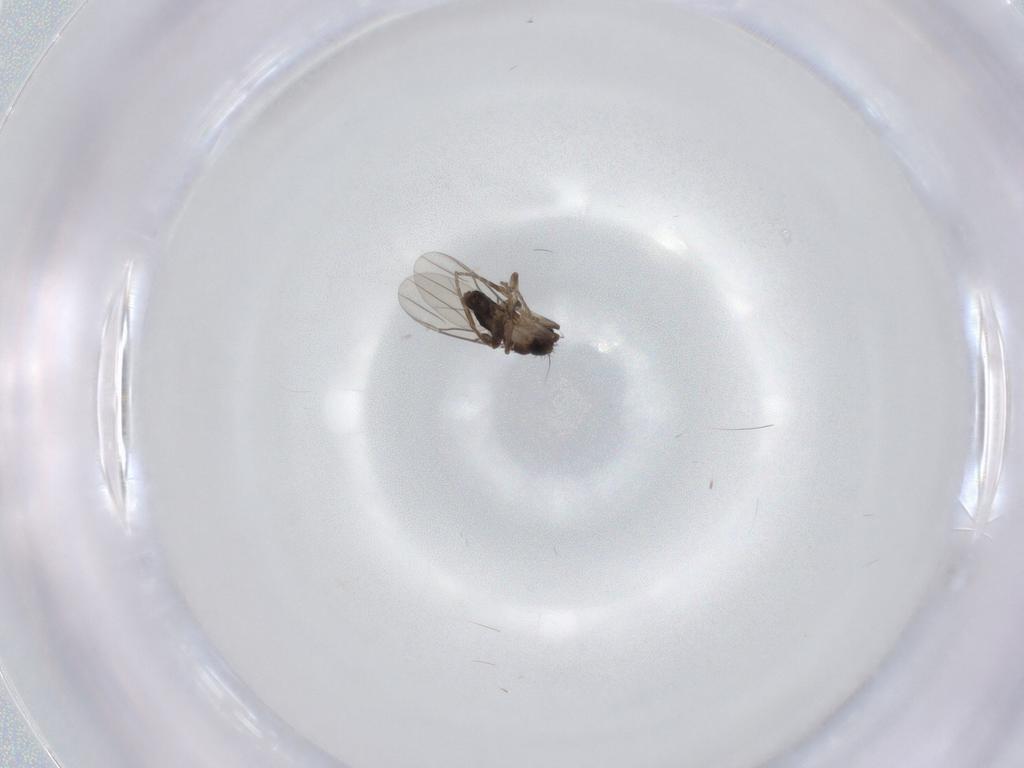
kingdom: Animalia
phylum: Arthropoda
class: Insecta
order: Diptera
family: Phoridae
